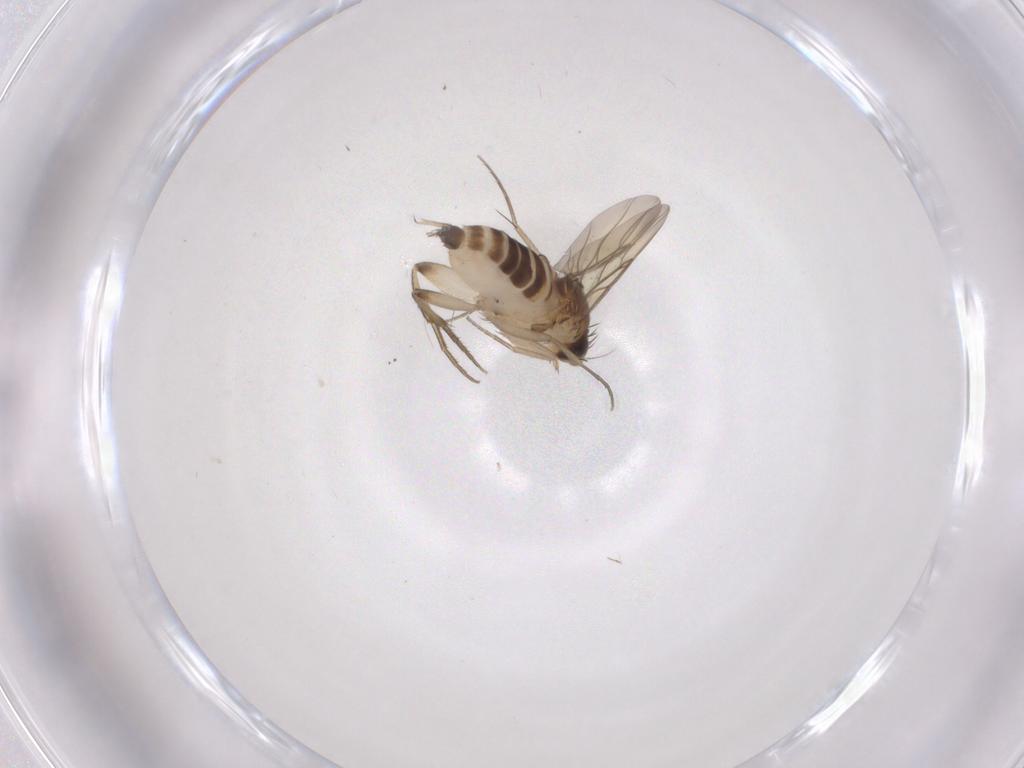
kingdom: Animalia
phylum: Arthropoda
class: Insecta
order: Diptera
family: Phoridae
